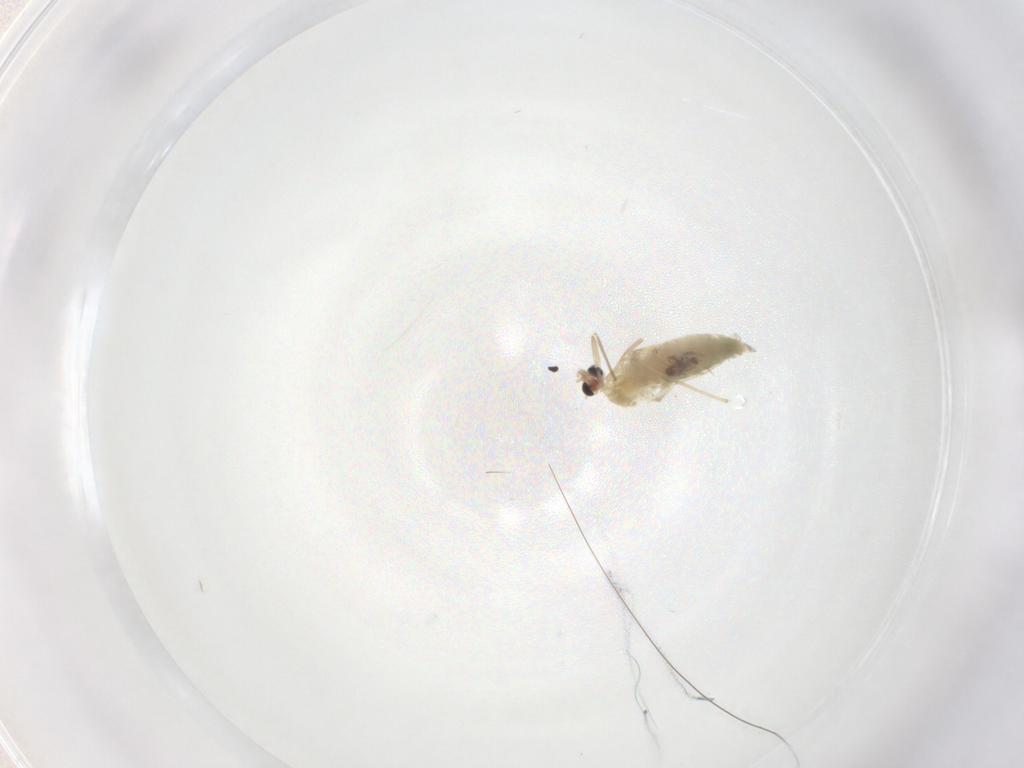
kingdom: Animalia
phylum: Arthropoda
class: Insecta
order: Diptera
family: Chironomidae
